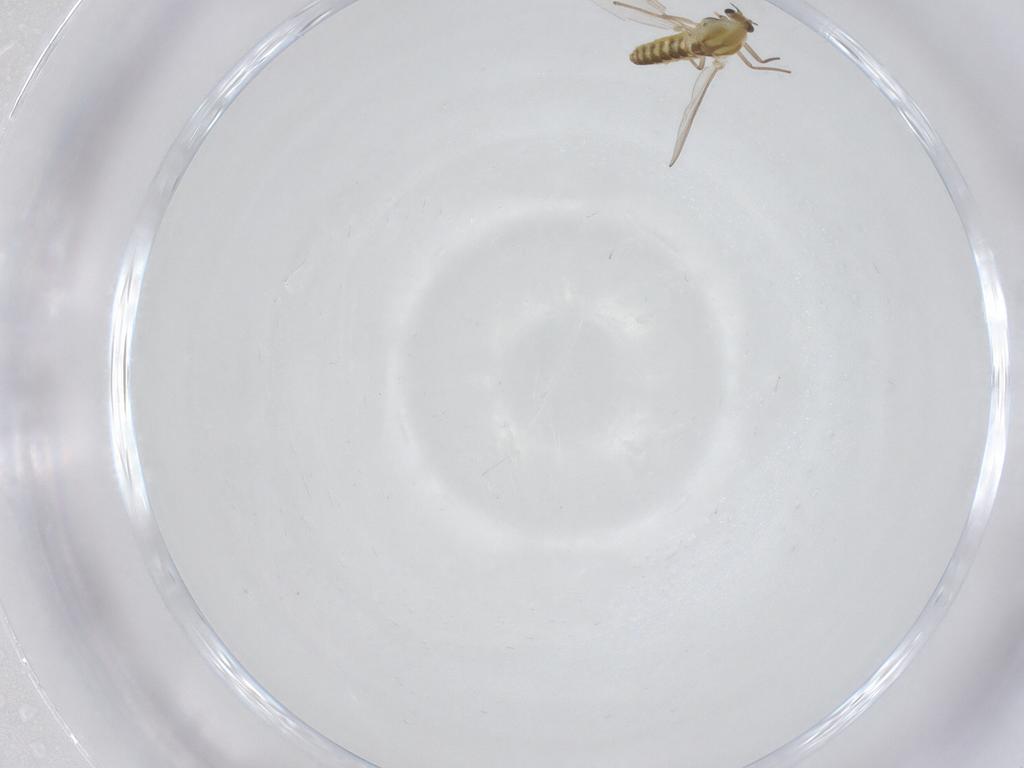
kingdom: Animalia
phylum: Arthropoda
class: Insecta
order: Diptera
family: Chironomidae
